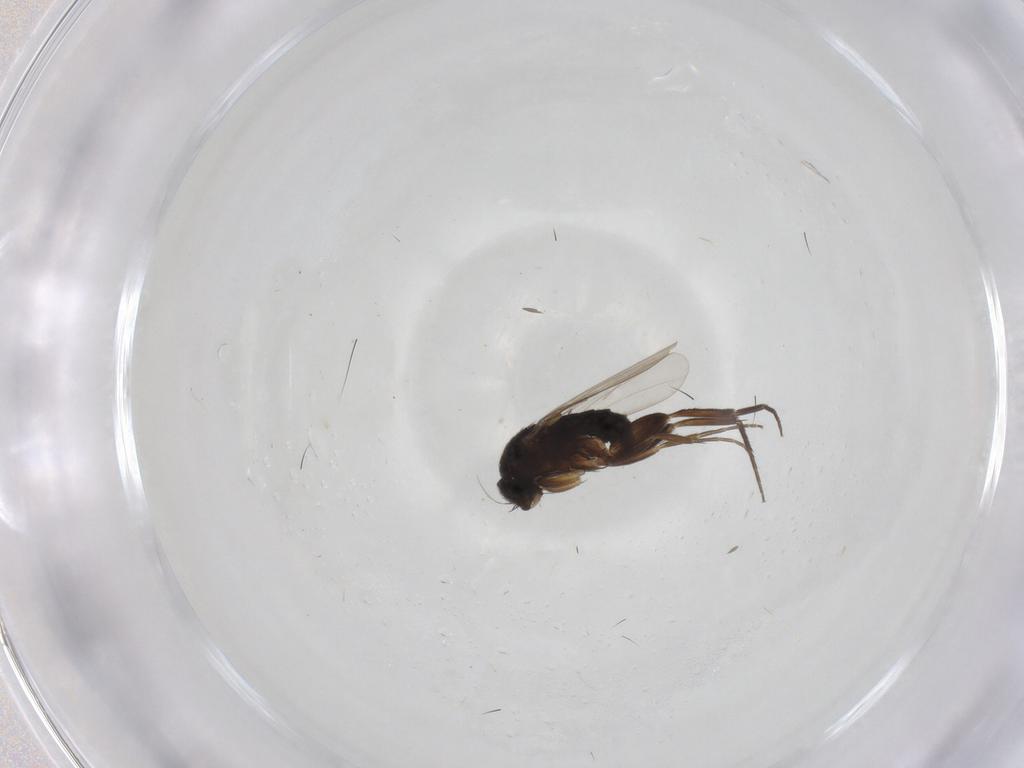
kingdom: Animalia
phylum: Arthropoda
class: Insecta
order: Diptera
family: Phoridae
